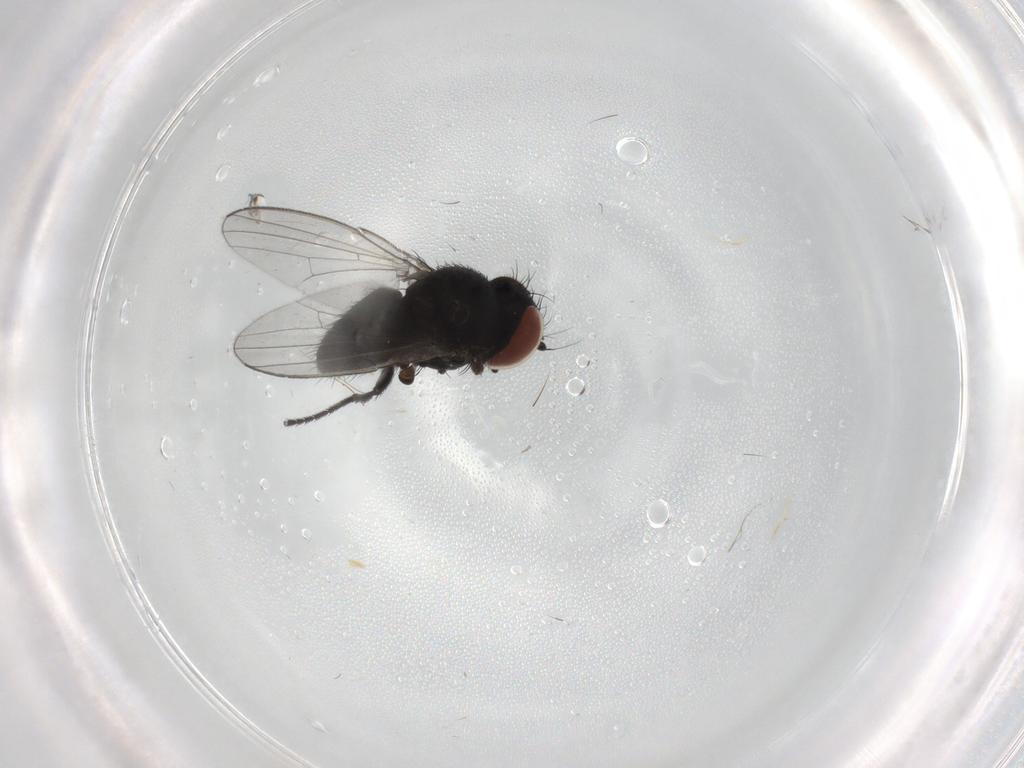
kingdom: Animalia
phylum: Arthropoda
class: Insecta
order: Diptera
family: Milichiidae
